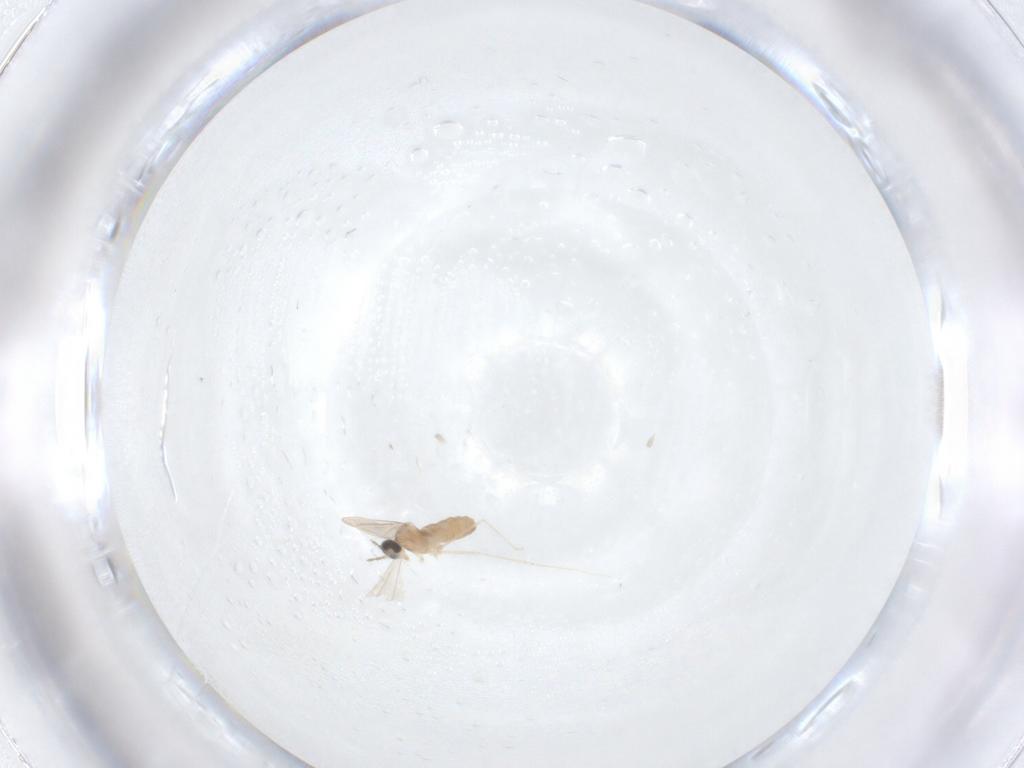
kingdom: Animalia
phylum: Arthropoda
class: Insecta
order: Diptera
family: Cecidomyiidae
